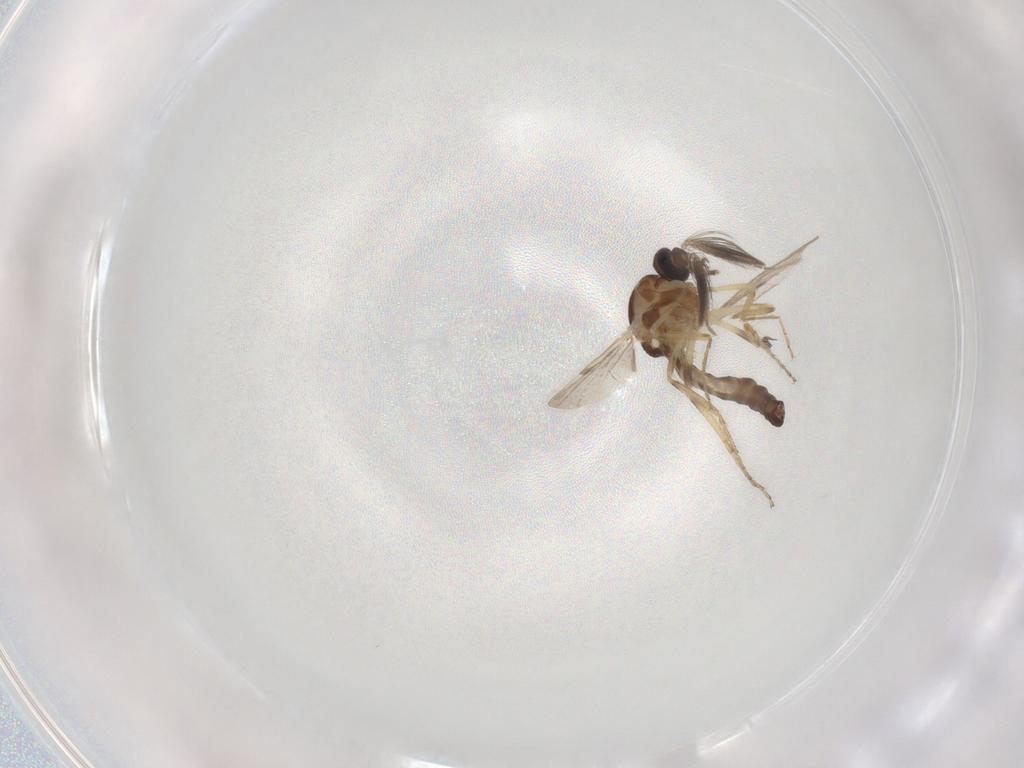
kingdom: Animalia
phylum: Arthropoda
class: Insecta
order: Diptera
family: Ceratopogonidae
